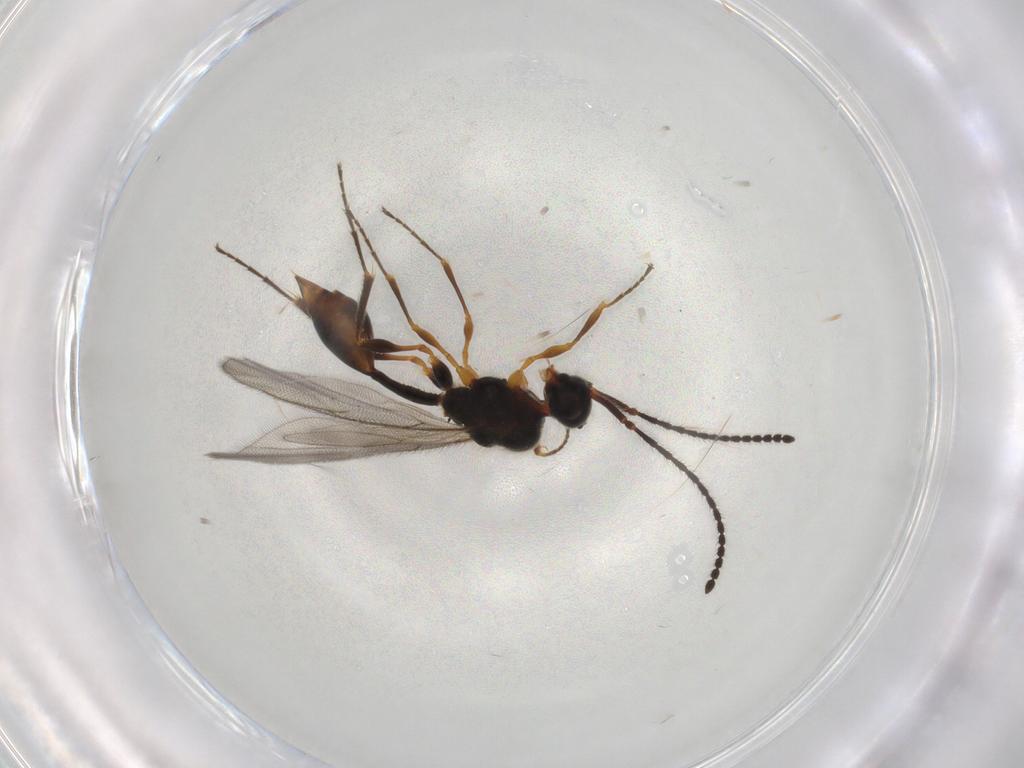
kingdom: Animalia
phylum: Arthropoda
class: Insecta
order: Hymenoptera
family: Diapriidae
